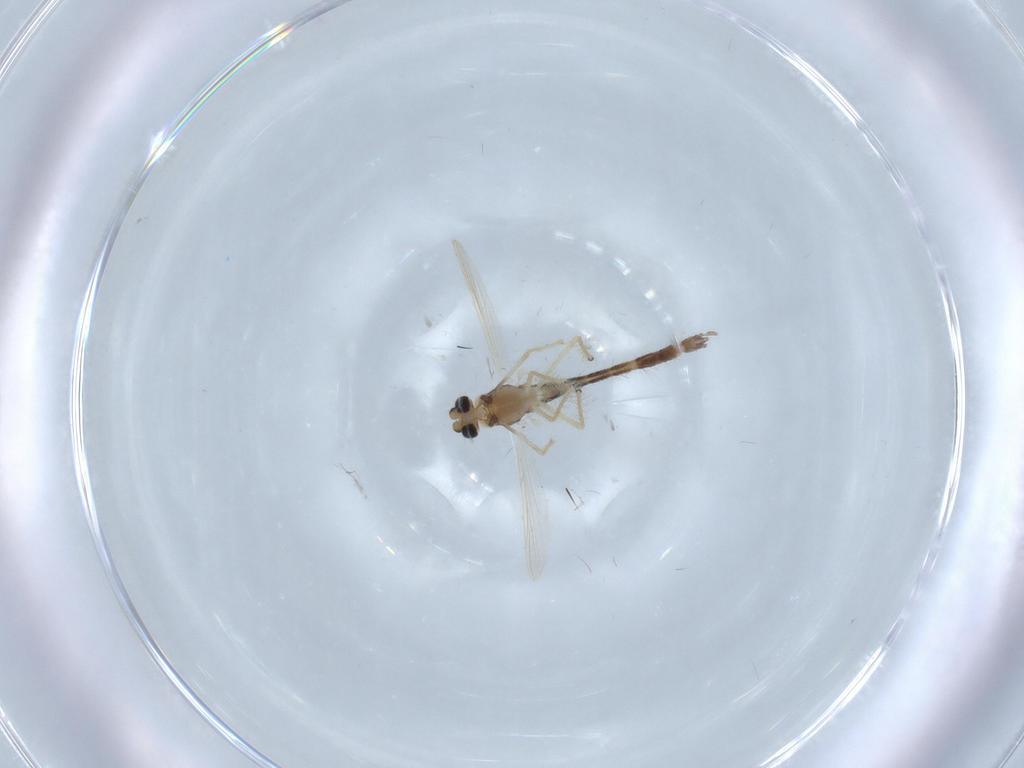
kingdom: Animalia
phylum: Arthropoda
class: Insecta
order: Diptera
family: Chironomidae
